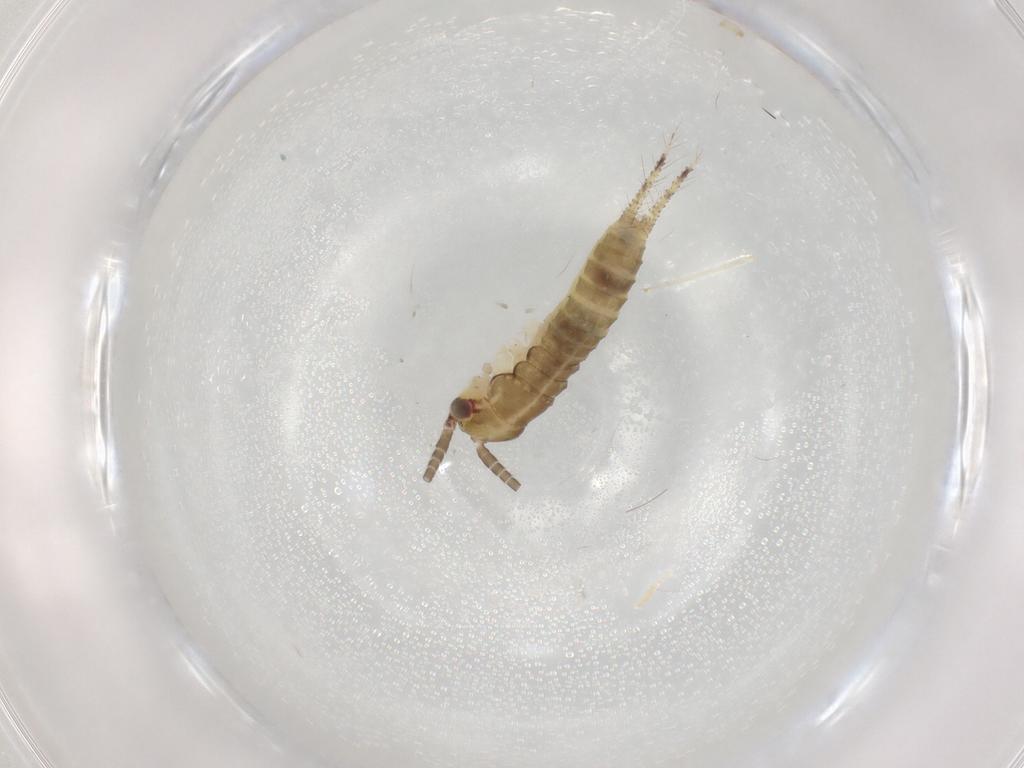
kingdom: Animalia
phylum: Arthropoda
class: Insecta
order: Orthoptera
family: Gryllidae
